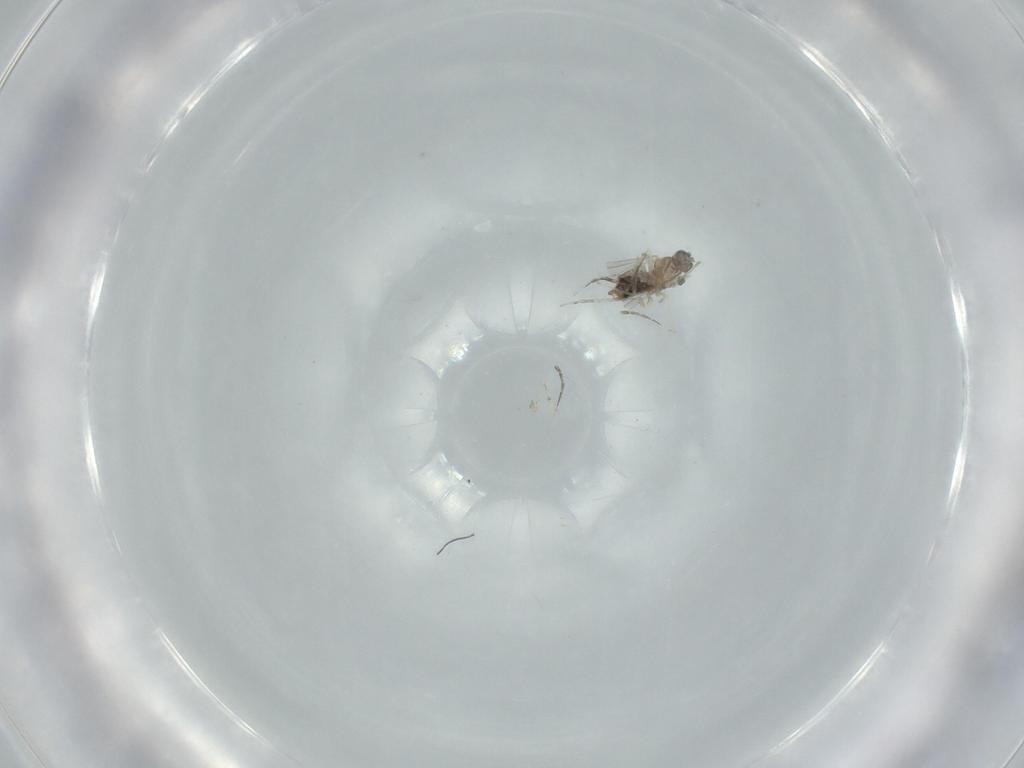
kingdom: Animalia
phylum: Arthropoda
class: Insecta
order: Diptera
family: Cecidomyiidae
